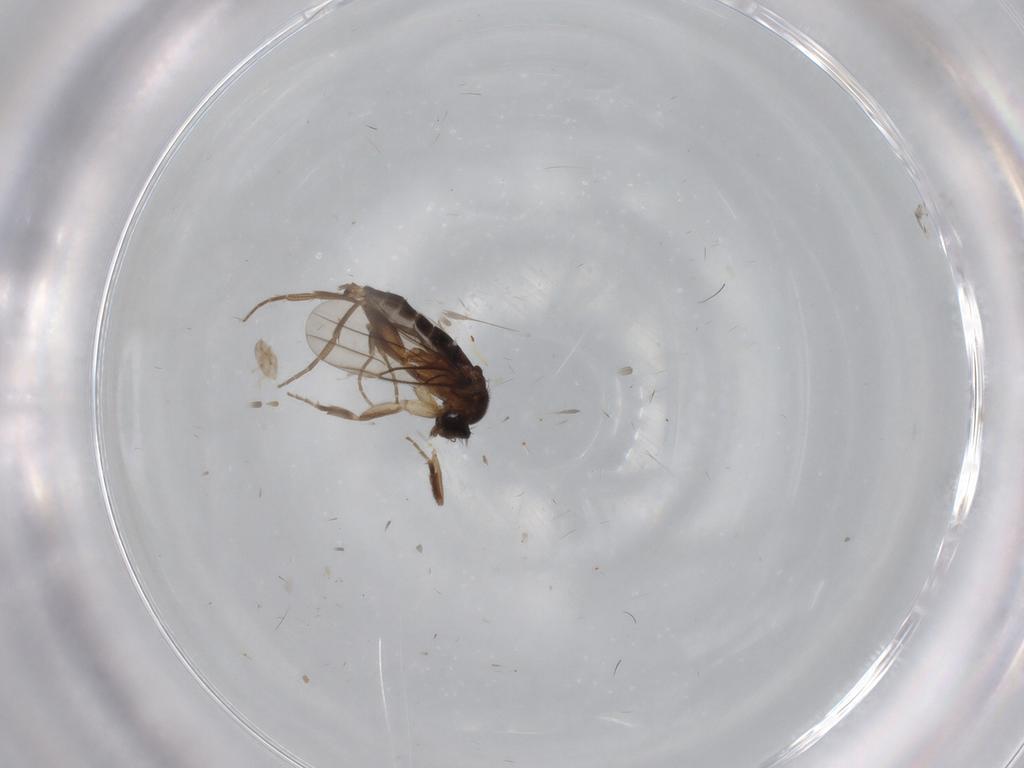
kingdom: Animalia
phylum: Arthropoda
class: Insecta
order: Diptera
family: Phoridae
